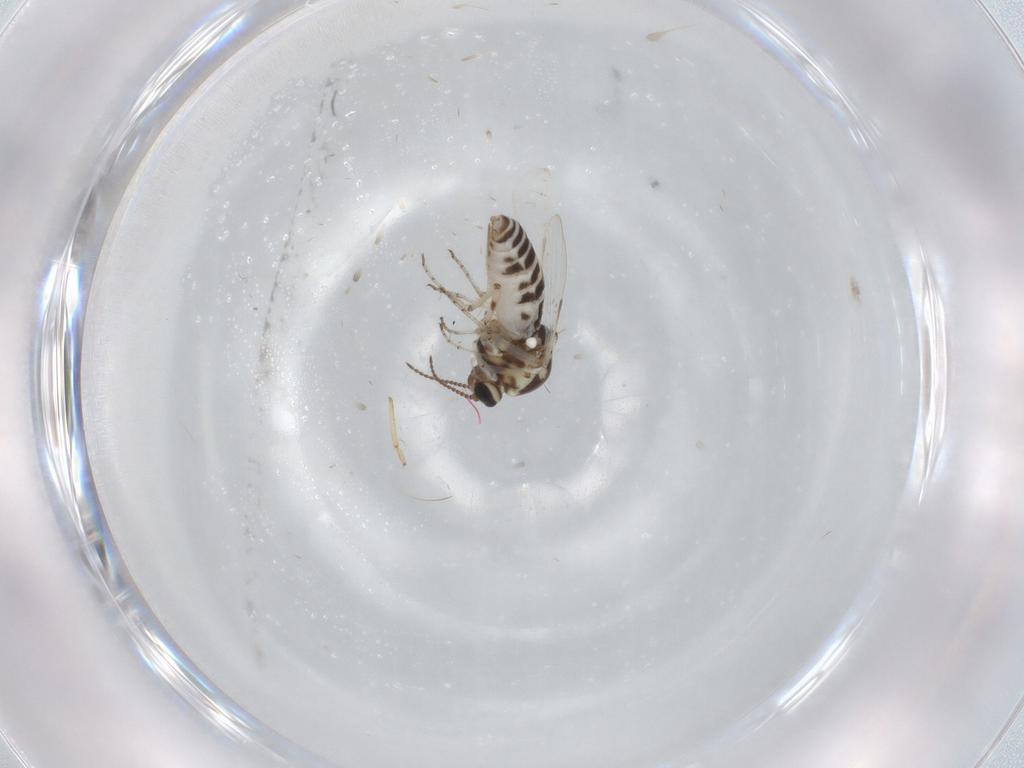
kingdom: Animalia
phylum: Arthropoda
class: Insecta
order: Diptera
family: Ceratopogonidae
